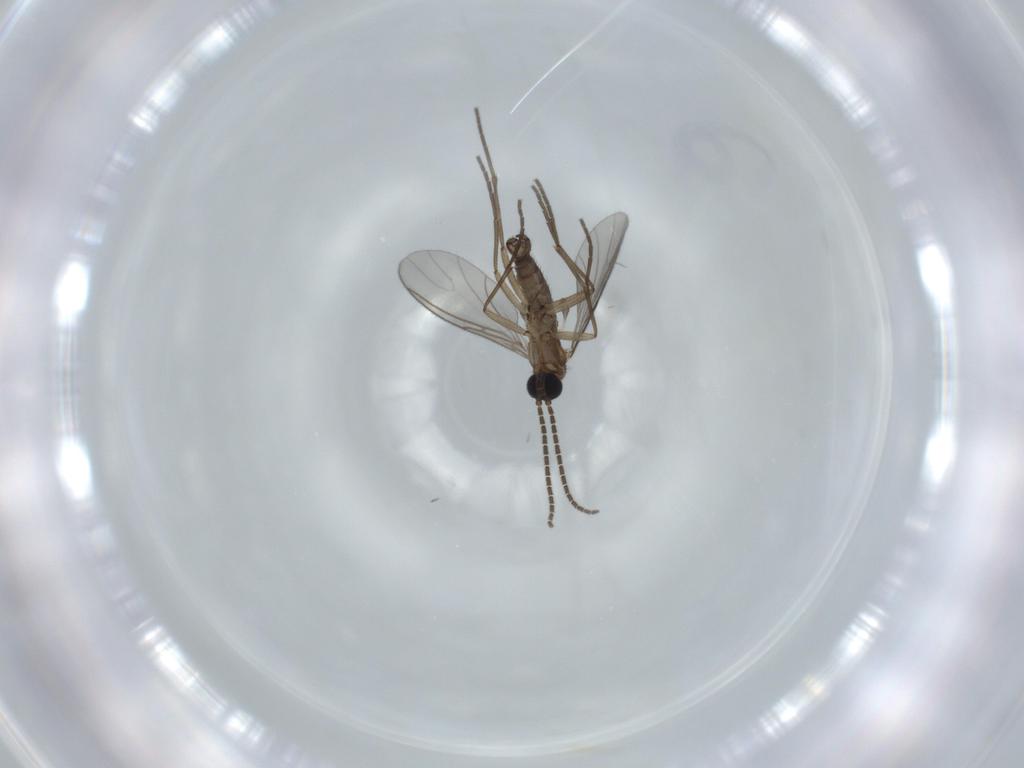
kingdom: Animalia
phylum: Arthropoda
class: Insecta
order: Diptera
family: Sciaridae
